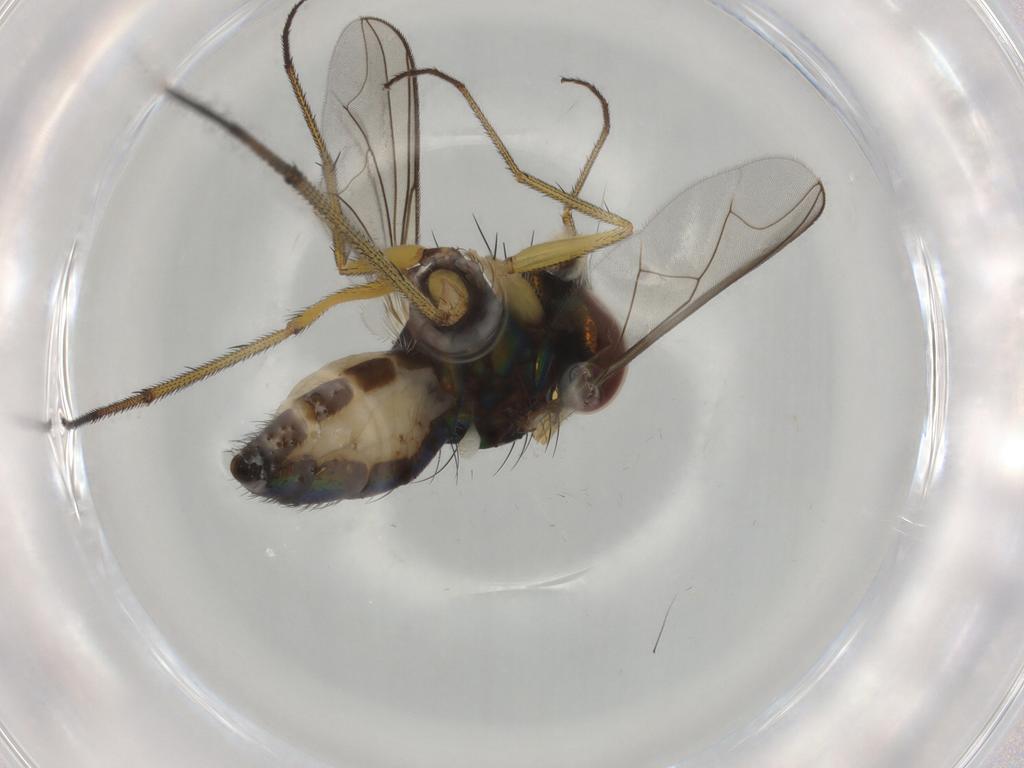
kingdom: Animalia
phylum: Arthropoda
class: Insecta
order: Diptera
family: Dolichopodidae
